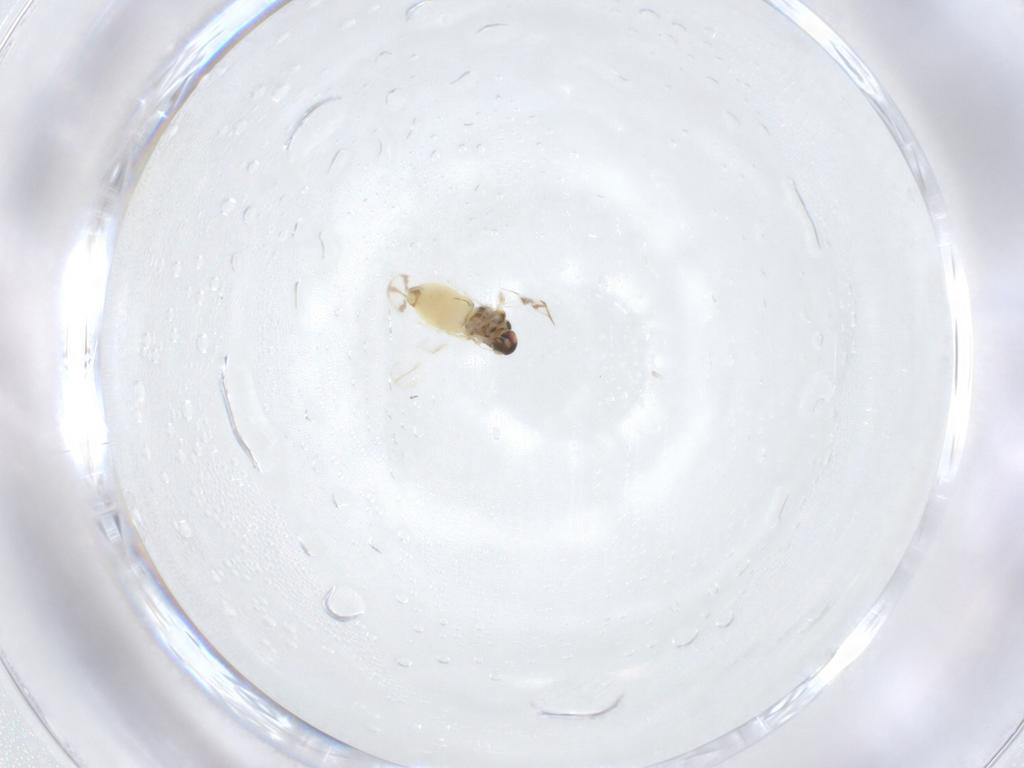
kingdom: Animalia
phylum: Arthropoda
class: Insecta
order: Hemiptera
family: Aleyrodidae
